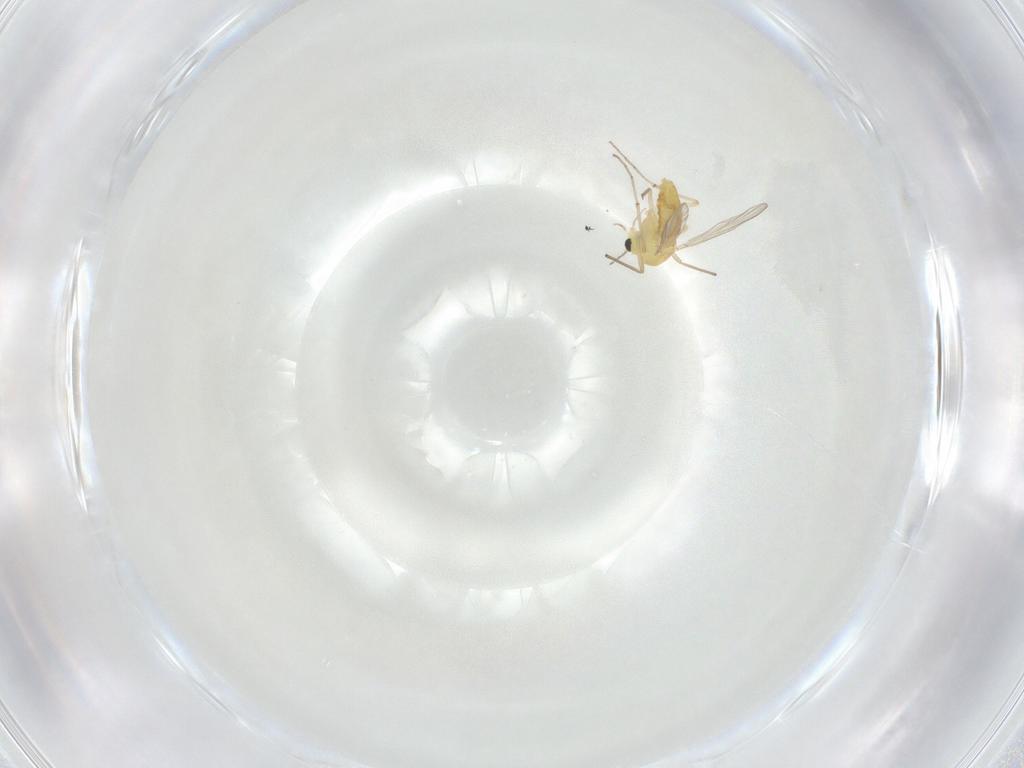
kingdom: Animalia
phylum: Arthropoda
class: Insecta
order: Diptera
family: Chironomidae
